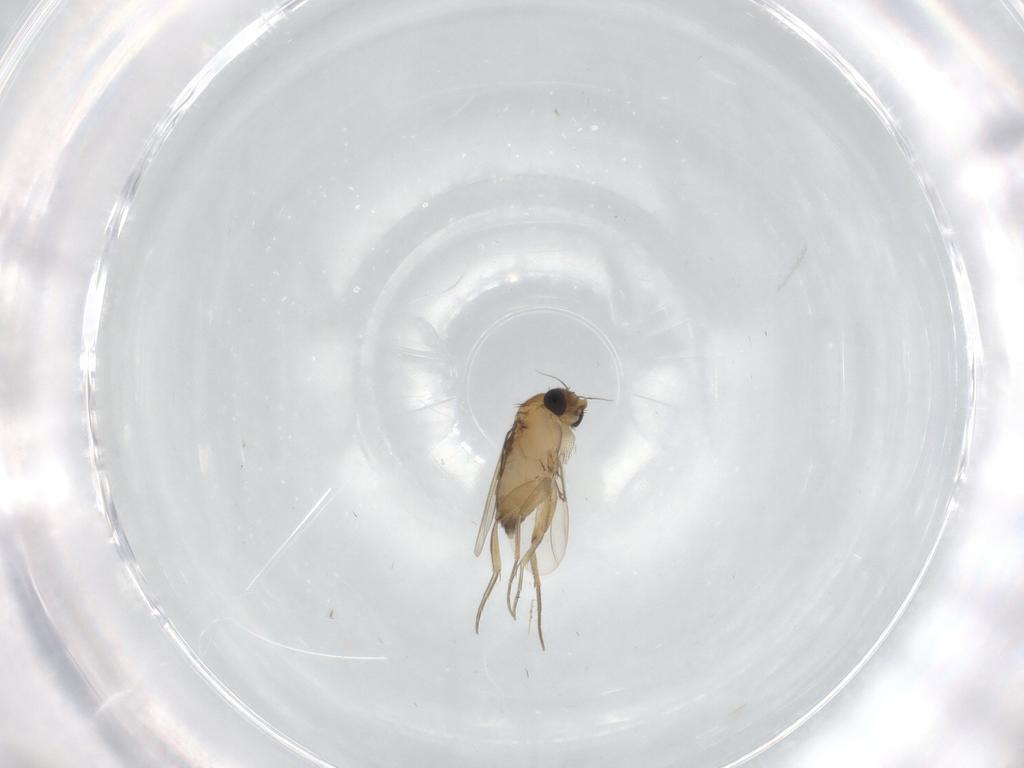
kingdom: Animalia
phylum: Arthropoda
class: Insecta
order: Diptera
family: Phoridae
